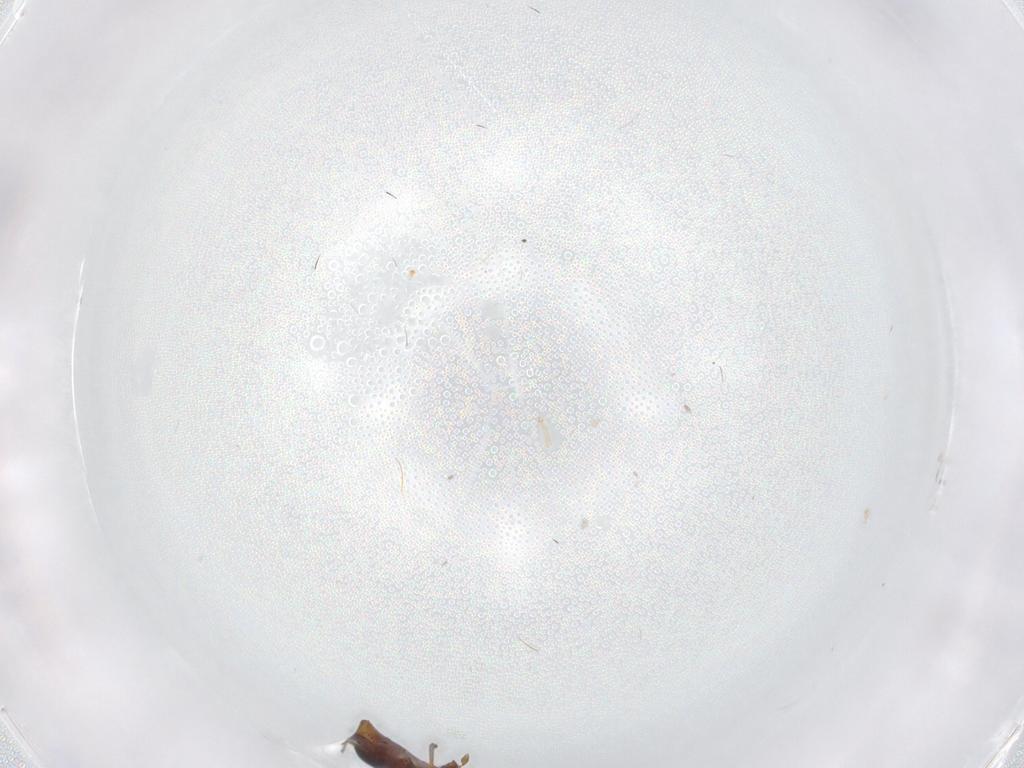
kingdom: Animalia
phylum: Arthropoda
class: Insecta
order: Coleoptera
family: Staphylinidae
